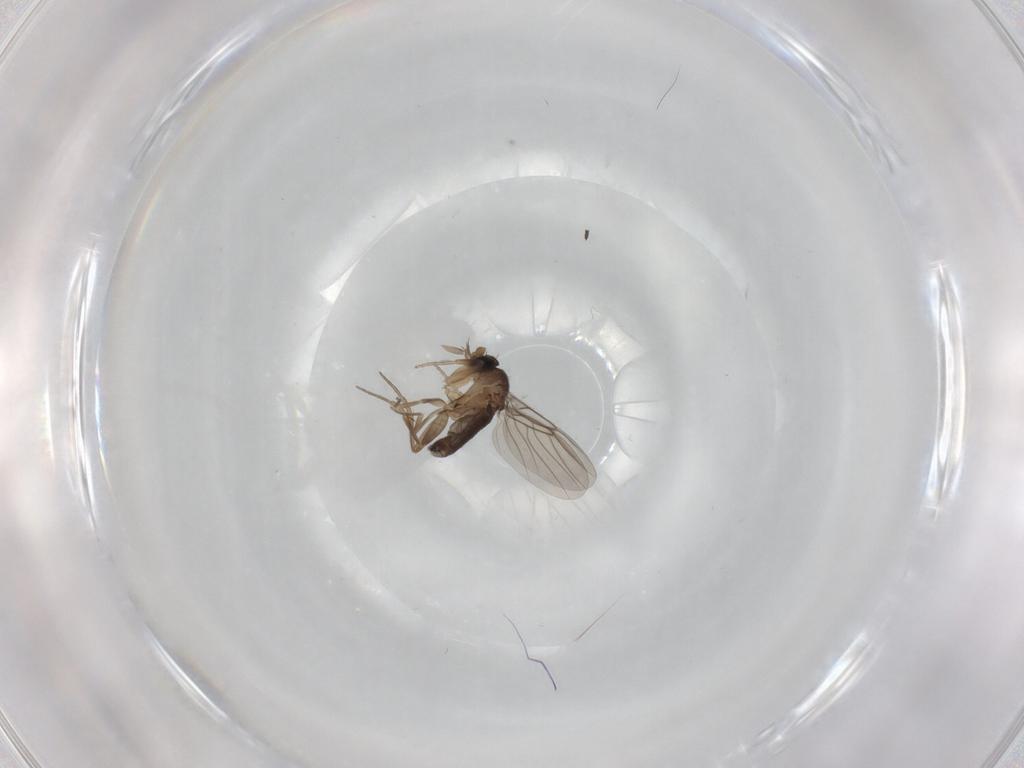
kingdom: Animalia
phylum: Arthropoda
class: Insecta
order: Diptera
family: Phoridae
